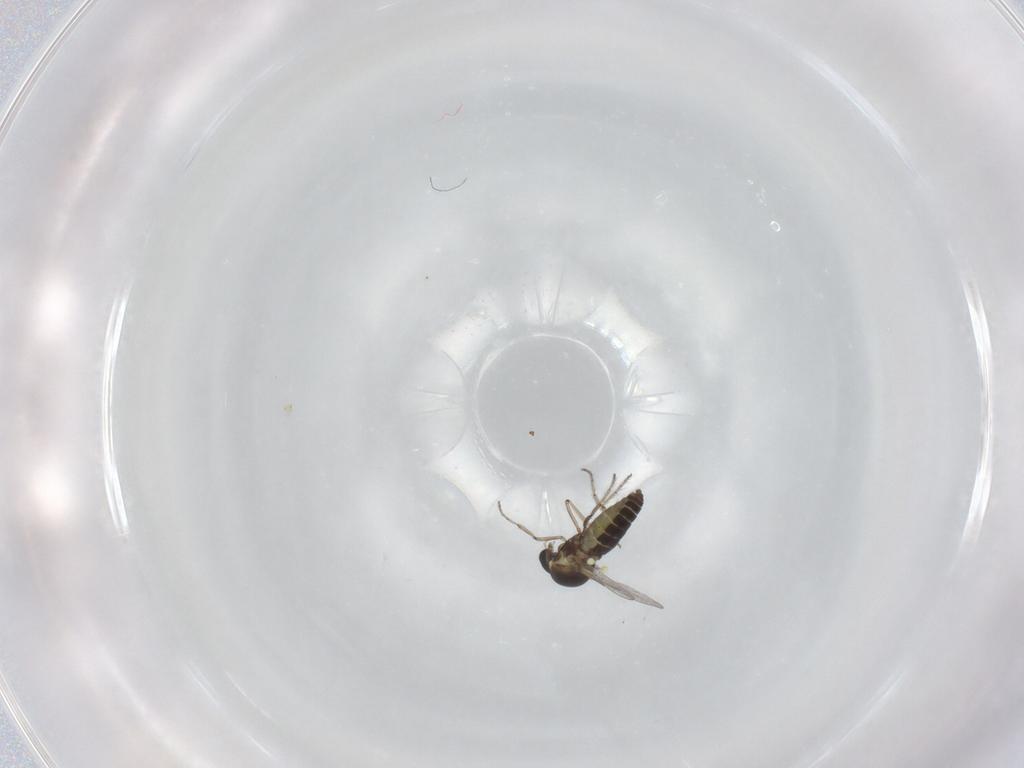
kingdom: Animalia
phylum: Arthropoda
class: Insecta
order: Diptera
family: Ceratopogonidae
